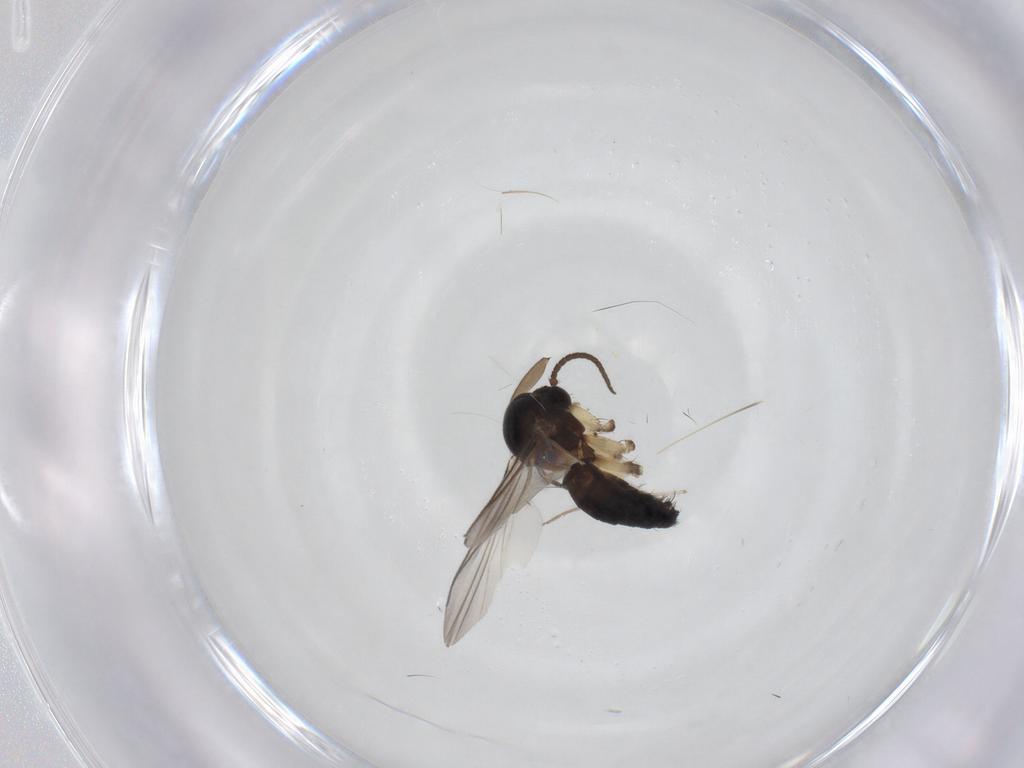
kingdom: Animalia
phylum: Arthropoda
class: Insecta
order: Diptera
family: Mycetophilidae
